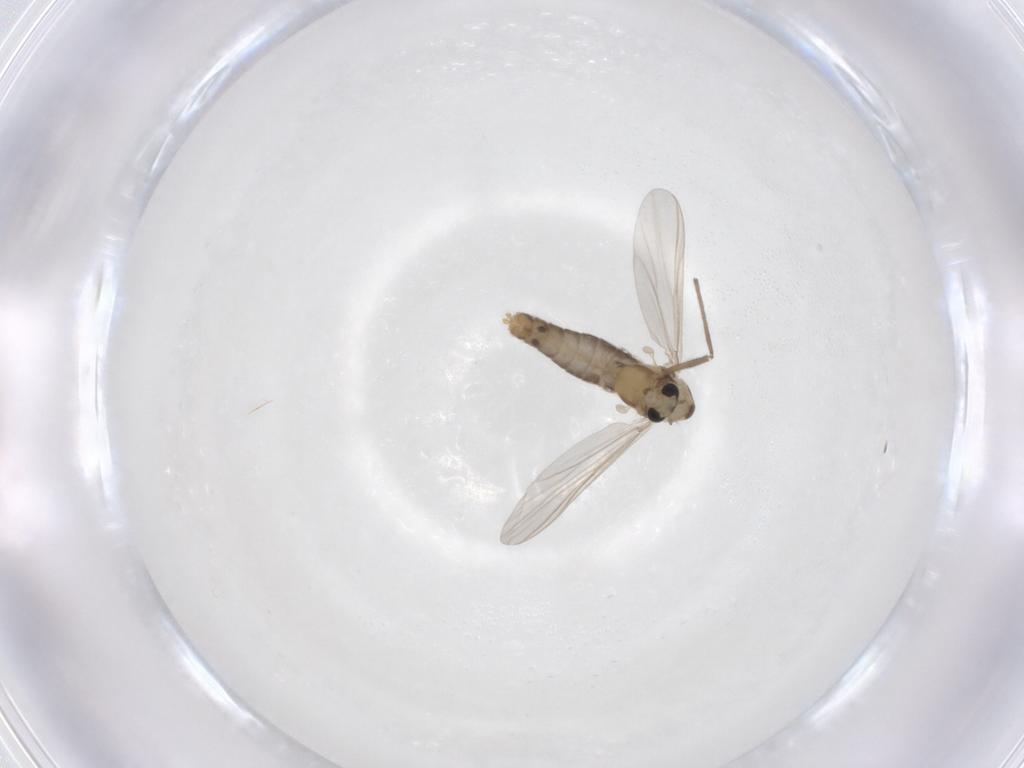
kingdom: Animalia
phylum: Arthropoda
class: Insecta
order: Diptera
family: Chironomidae
